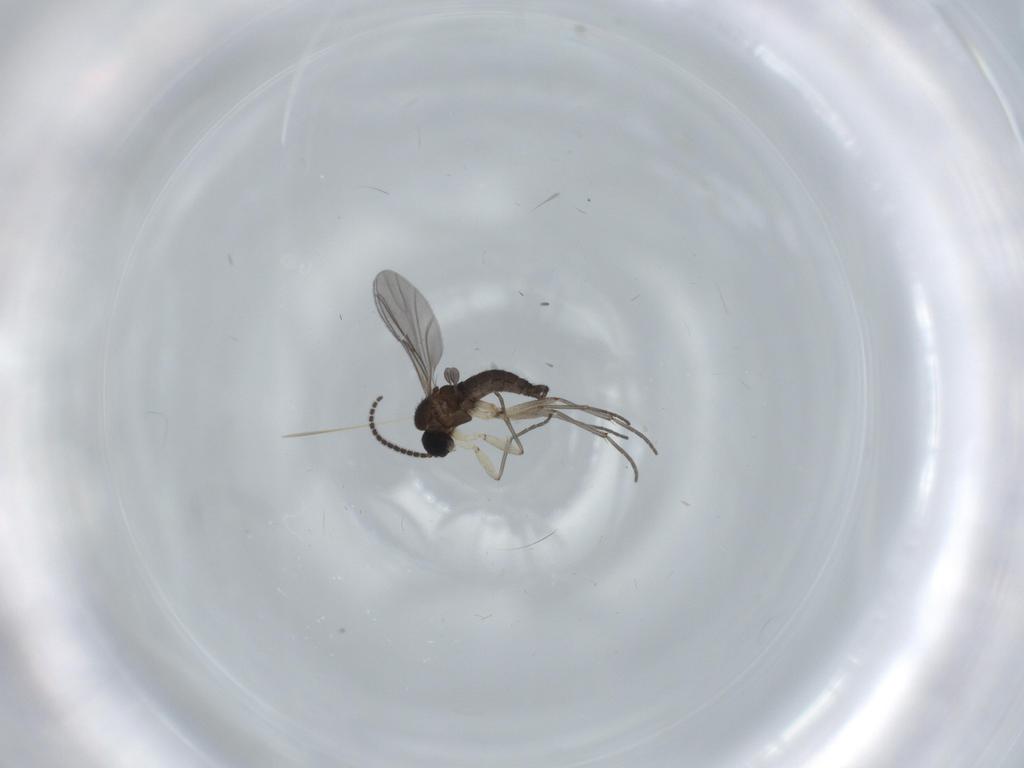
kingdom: Animalia
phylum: Arthropoda
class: Insecta
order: Diptera
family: Sciaridae
